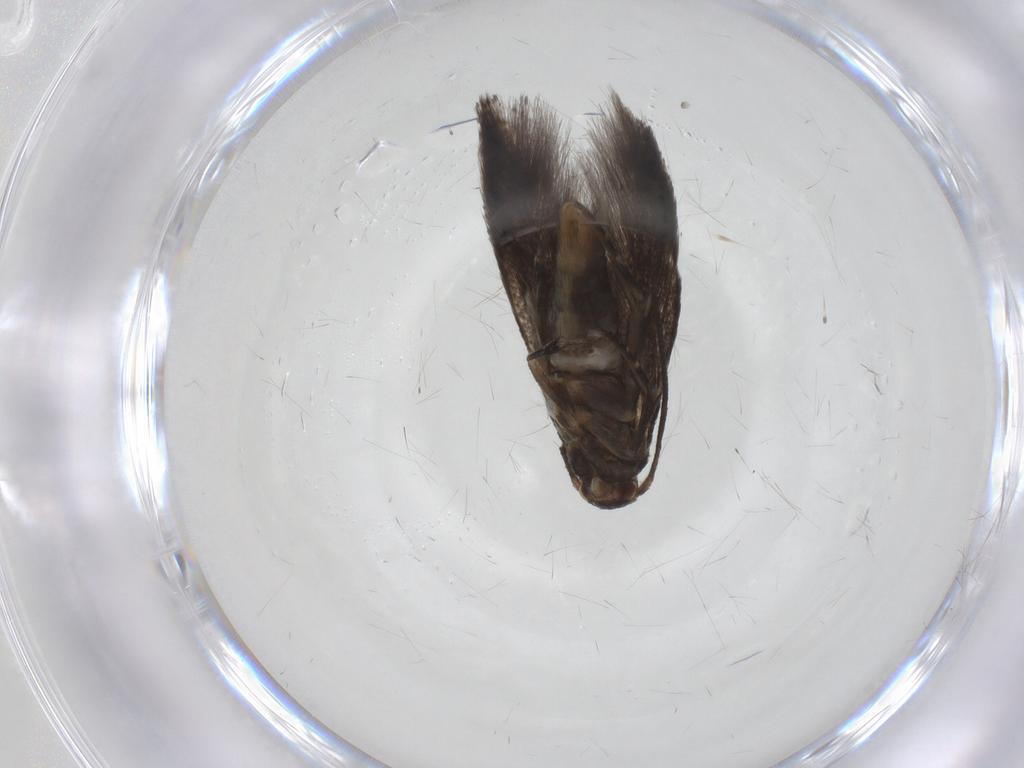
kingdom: Animalia
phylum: Arthropoda
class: Insecta
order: Lepidoptera
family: Elachistidae
